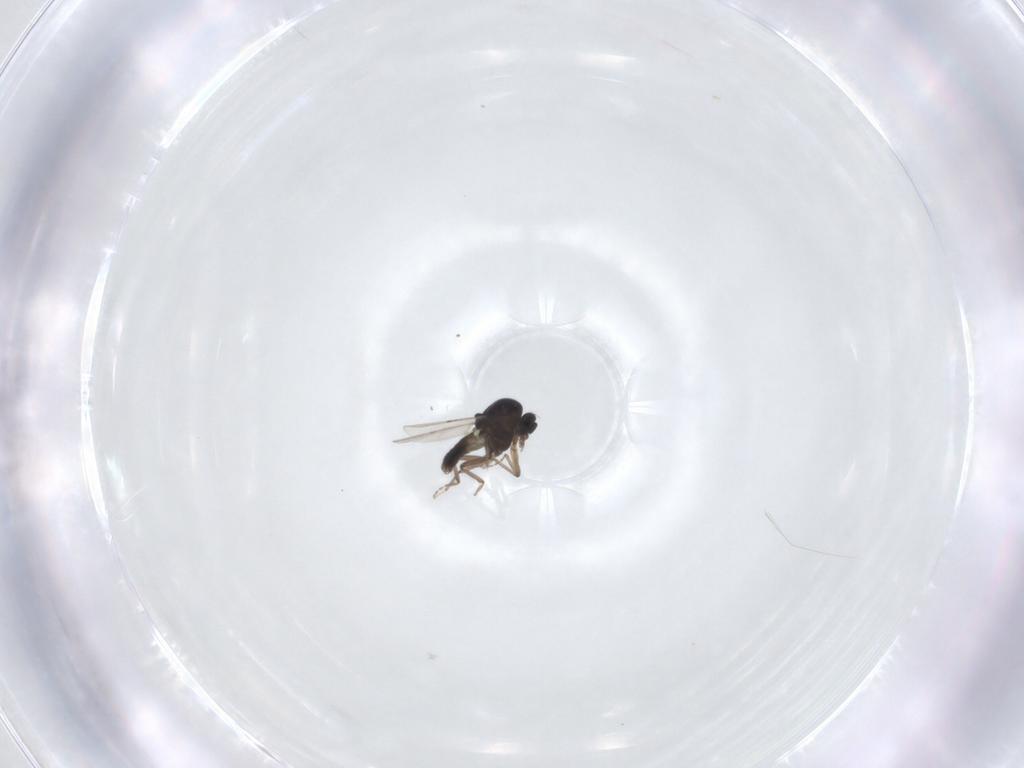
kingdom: Animalia
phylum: Arthropoda
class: Insecta
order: Diptera
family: Ceratopogonidae
